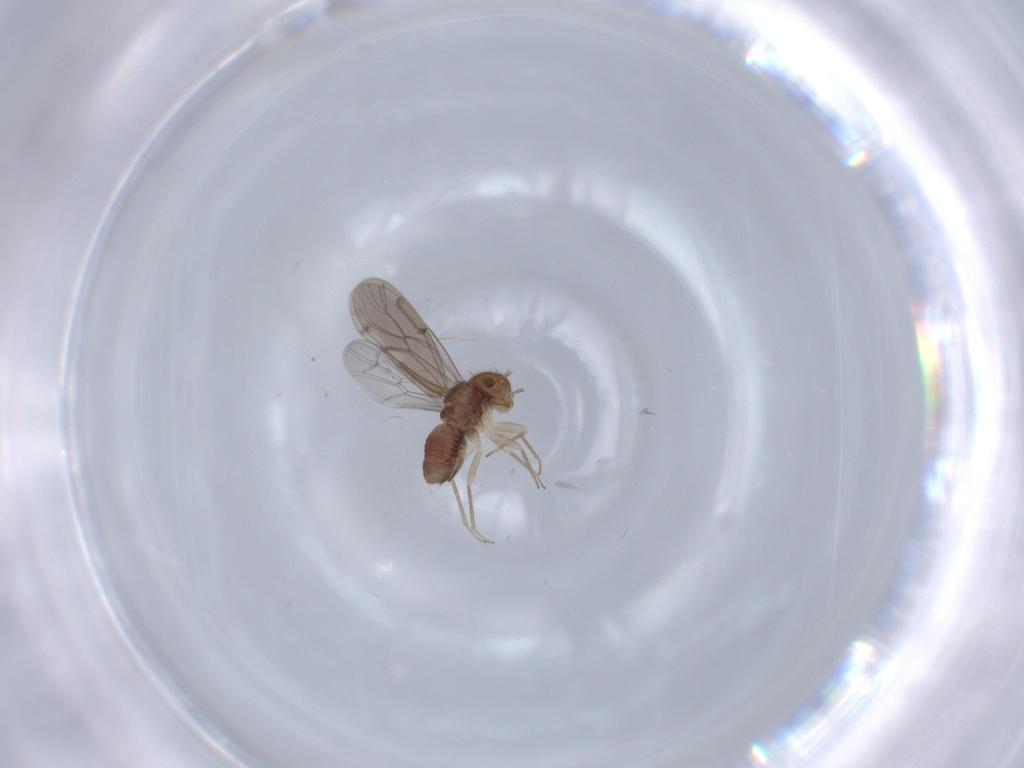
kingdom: Animalia
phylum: Arthropoda
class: Insecta
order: Psocodea
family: Ectopsocidae
